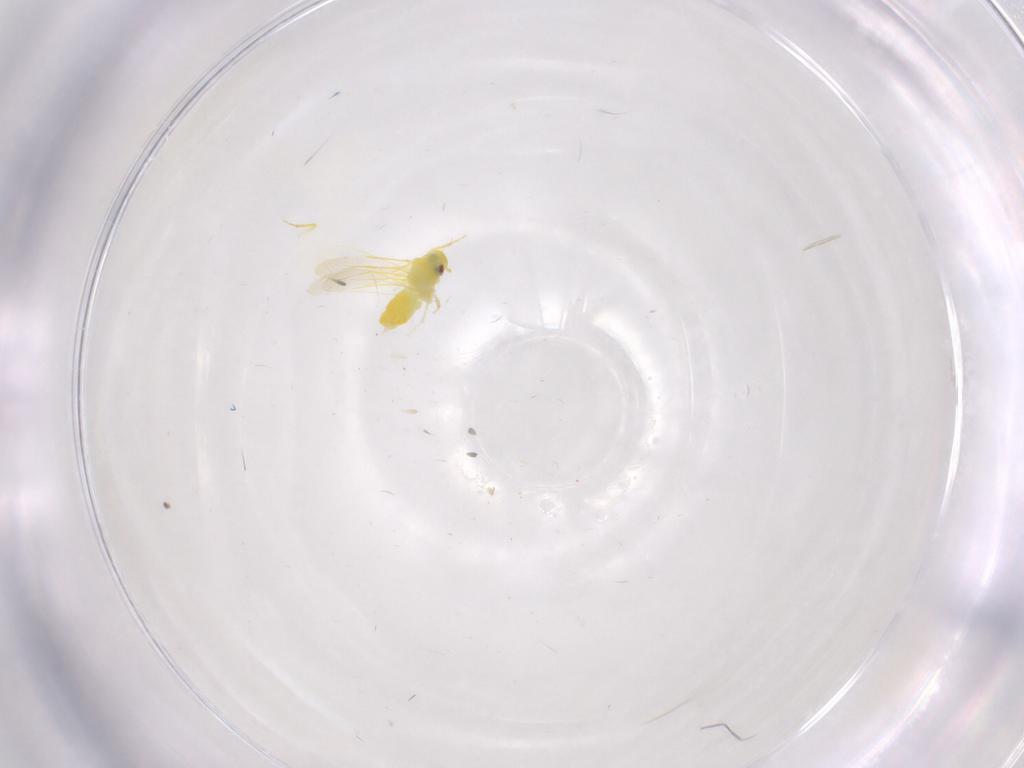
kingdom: Animalia
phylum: Arthropoda
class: Insecta
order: Hemiptera
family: Aleyrodidae
